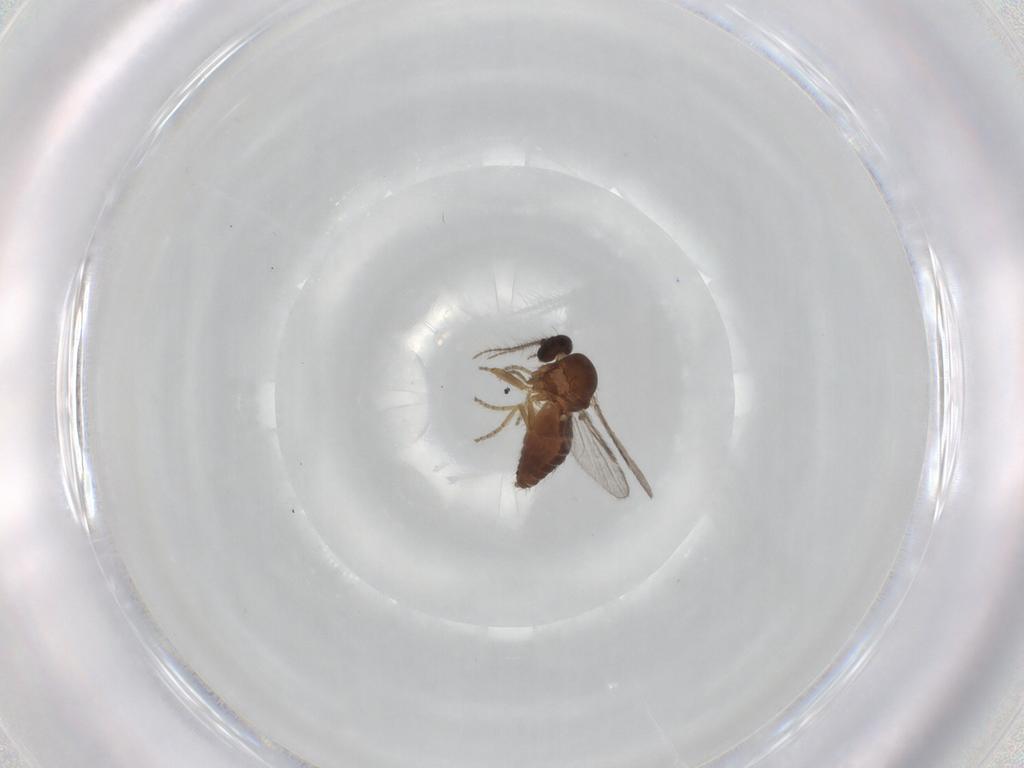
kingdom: Animalia
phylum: Arthropoda
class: Insecta
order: Diptera
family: Ceratopogonidae
